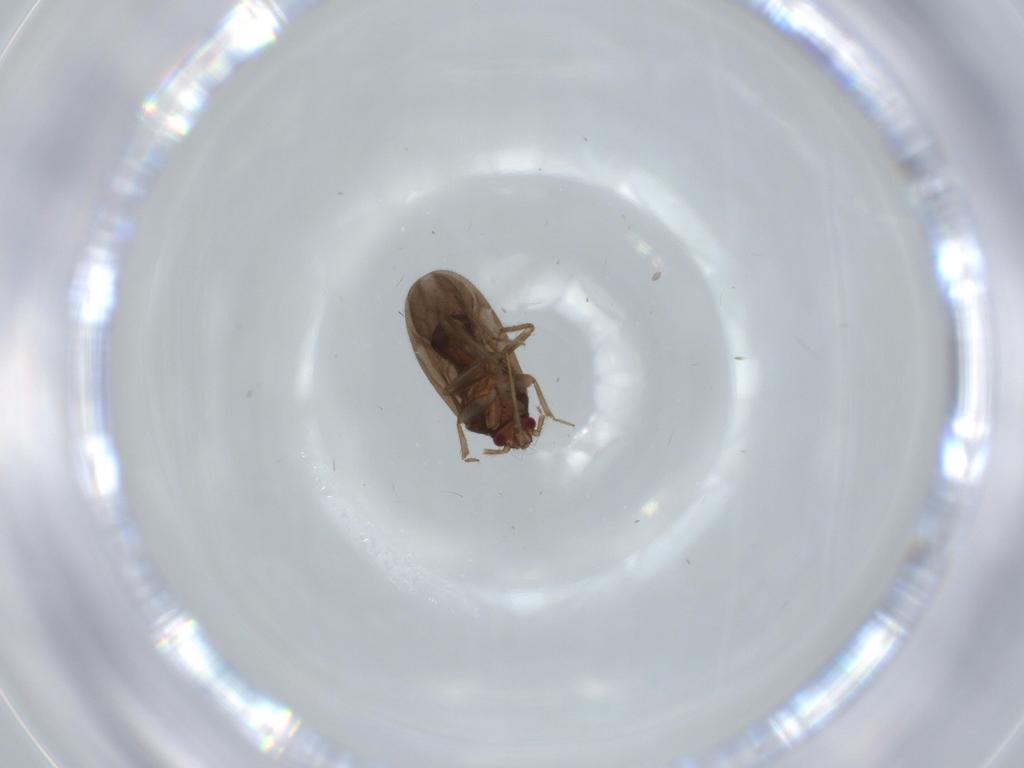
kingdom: Animalia
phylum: Arthropoda
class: Insecta
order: Hemiptera
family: Ceratocombidae
